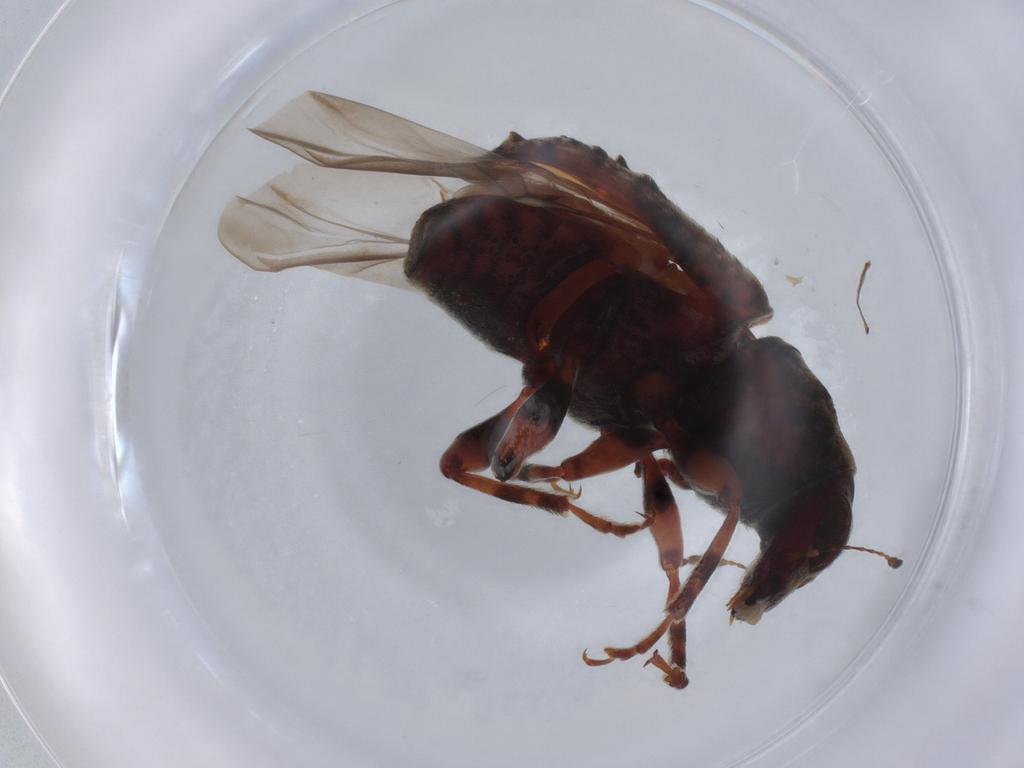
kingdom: Animalia
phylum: Arthropoda
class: Insecta
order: Coleoptera
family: Anthribidae
